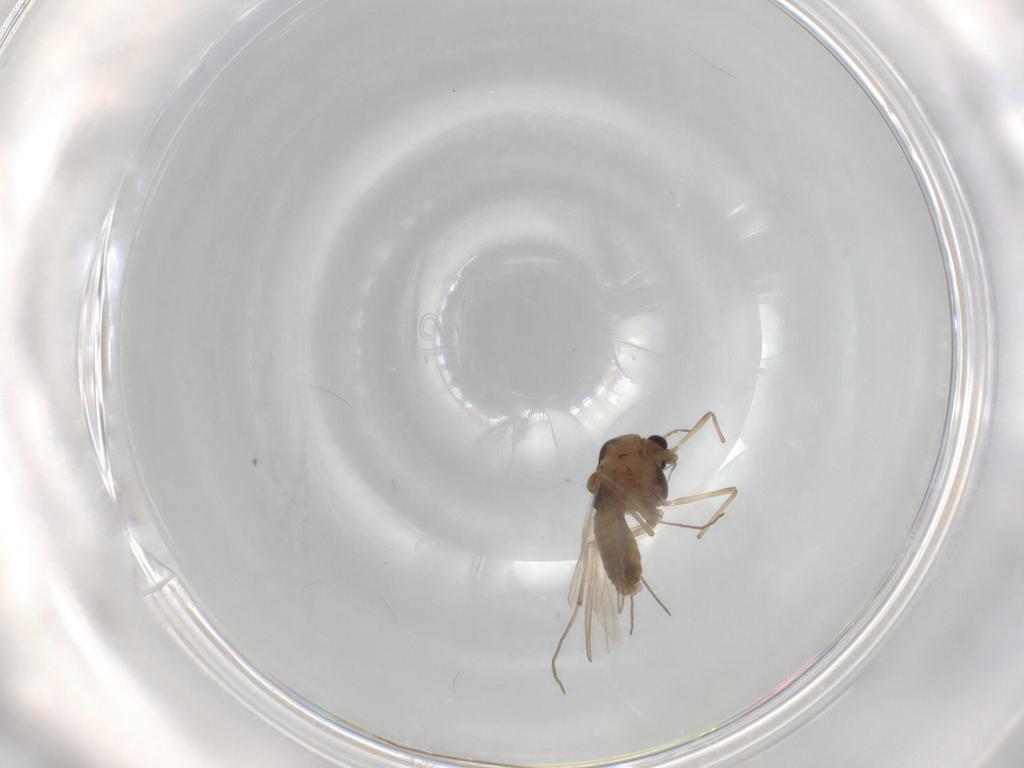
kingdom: Animalia
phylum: Arthropoda
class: Insecta
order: Diptera
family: Chironomidae
